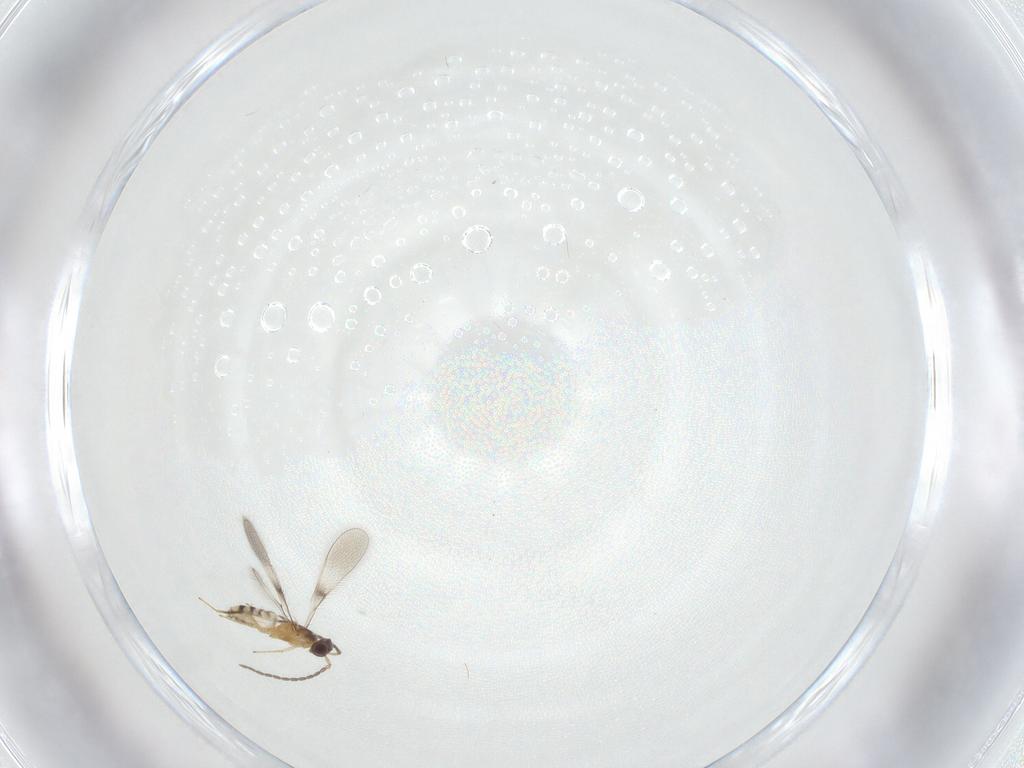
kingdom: Animalia
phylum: Arthropoda
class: Insecta
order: Hymenoptera
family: Mymaridae
